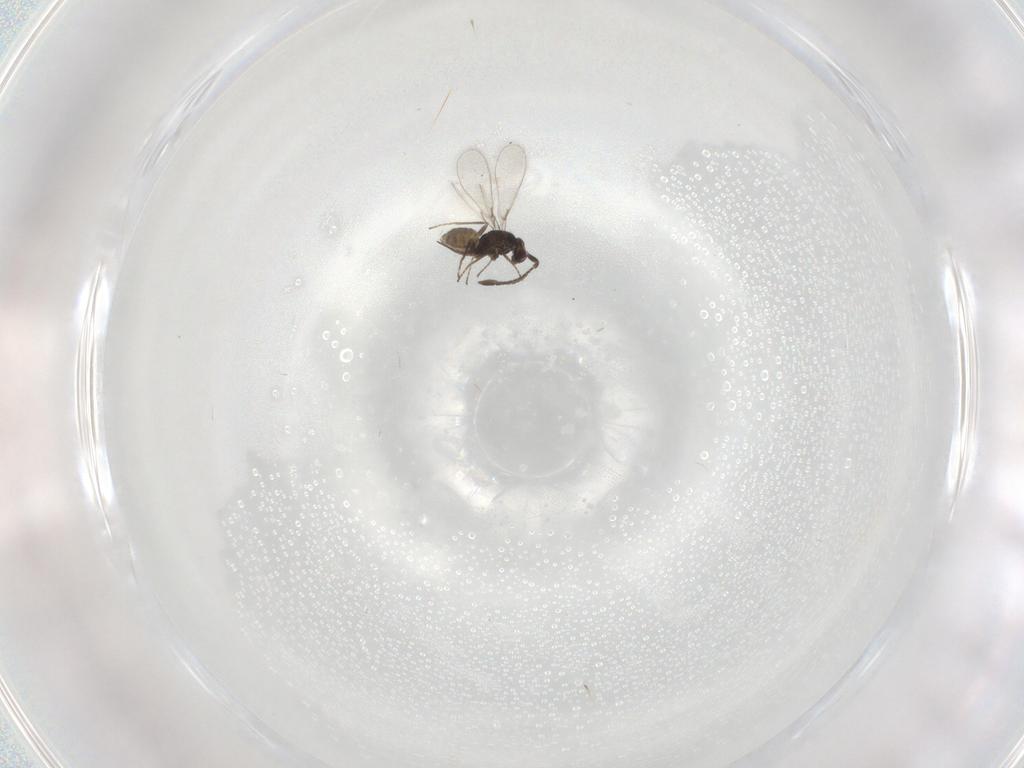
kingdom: Animalia
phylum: Arthropoda
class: Insecta
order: Hymenoptera
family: Mymaridae
